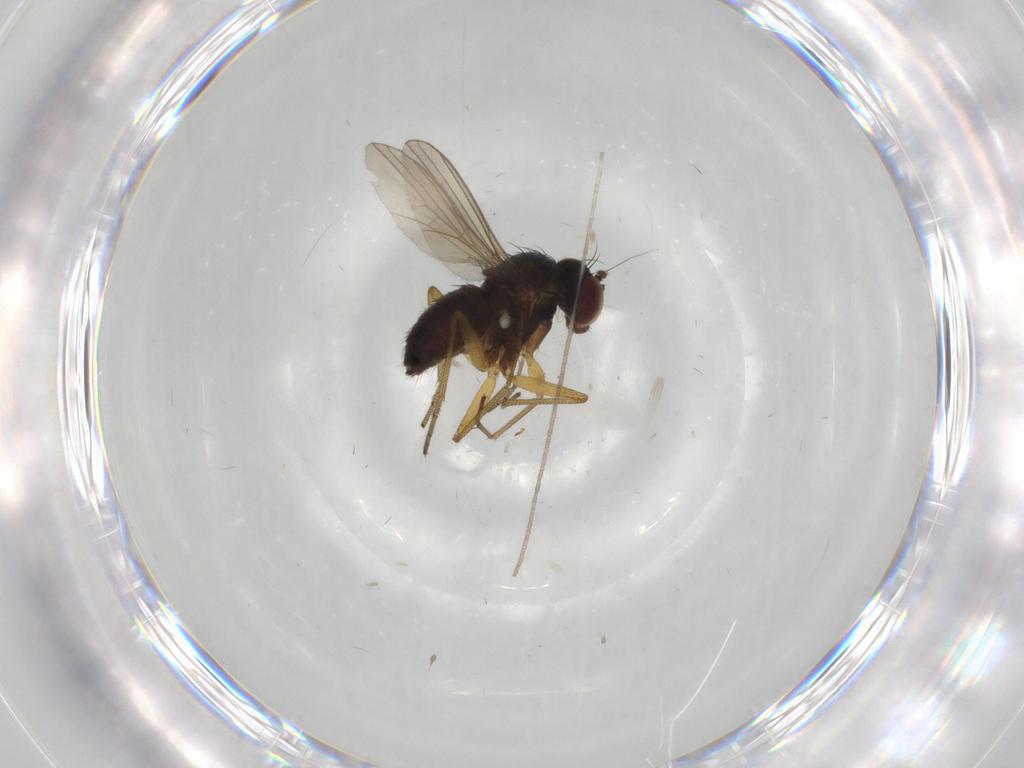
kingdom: Animalia
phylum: Arthropoda
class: Insecta
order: Diptera
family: Dolichopodidae
